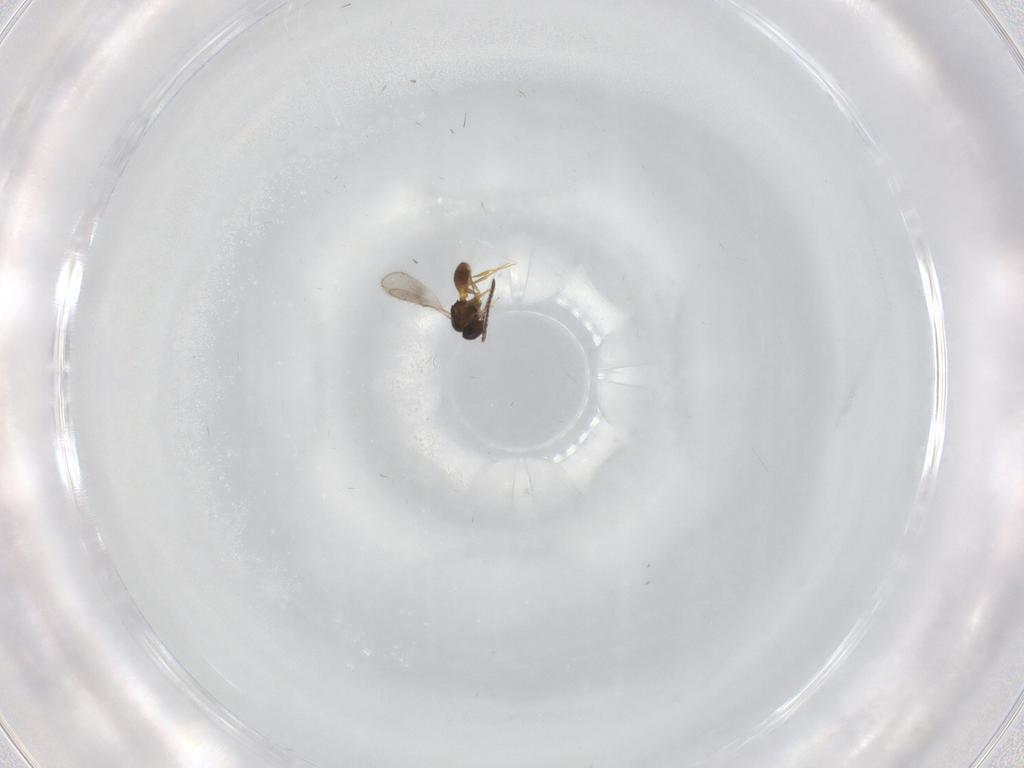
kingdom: Animalia
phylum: Arthropoda
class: Insecta
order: Hymenoptera
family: Scelionidae
